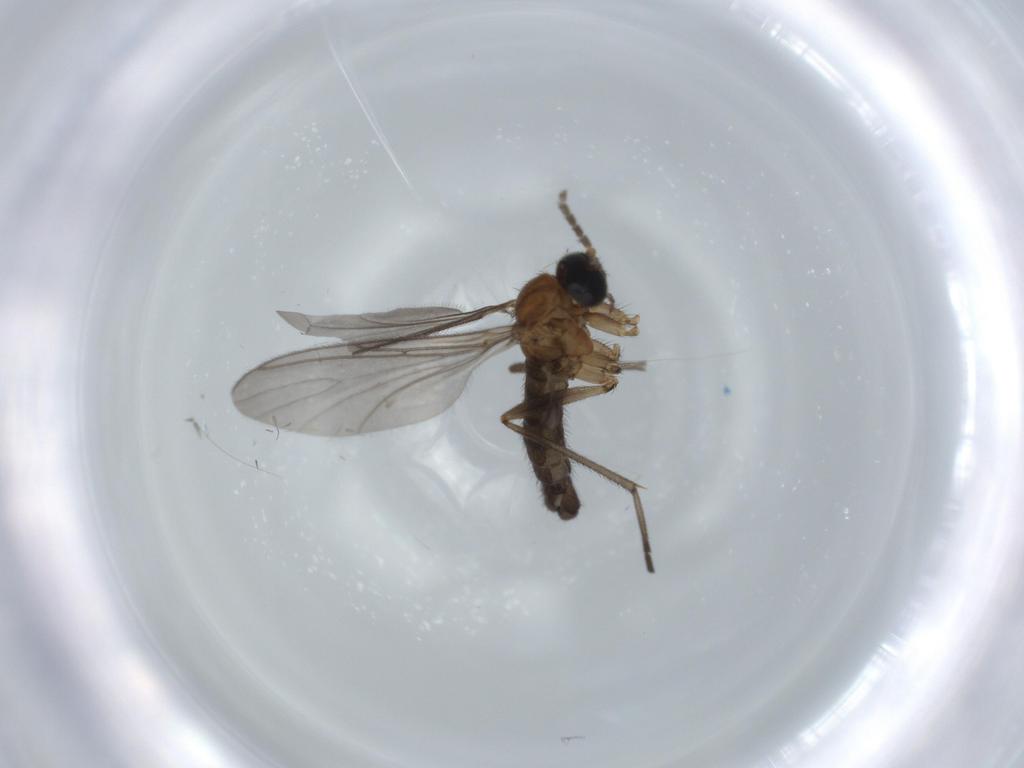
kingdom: Animalia
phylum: Arthropoda
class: Insecta
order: Diptera
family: Sciaridae
